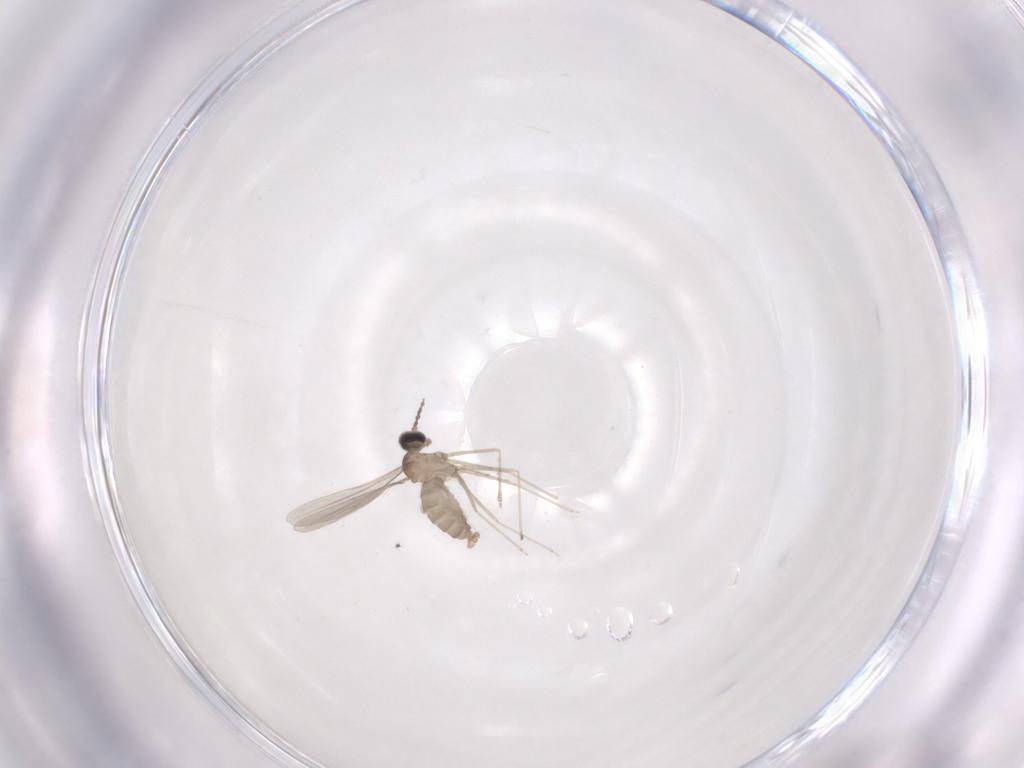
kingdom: Animalia
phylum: Arthropoda
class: Insecta
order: Diptera
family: Cecidomyiidae
